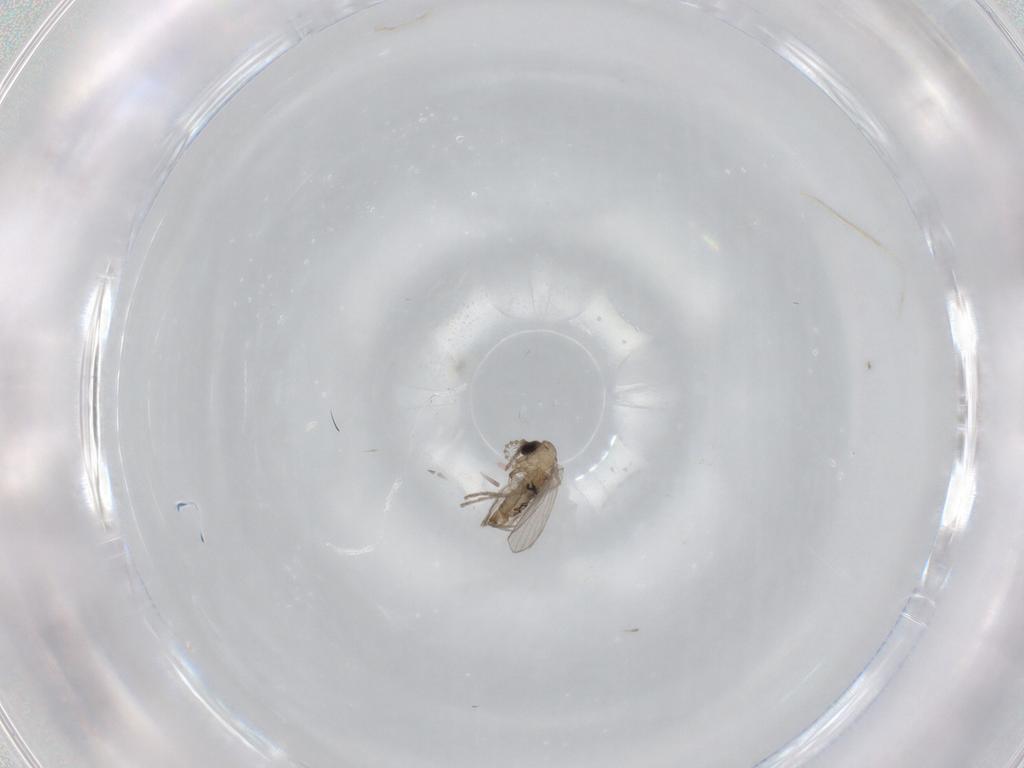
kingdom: Animalia
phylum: Arthropoda
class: Insecta
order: Diptera
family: Psychodidae
